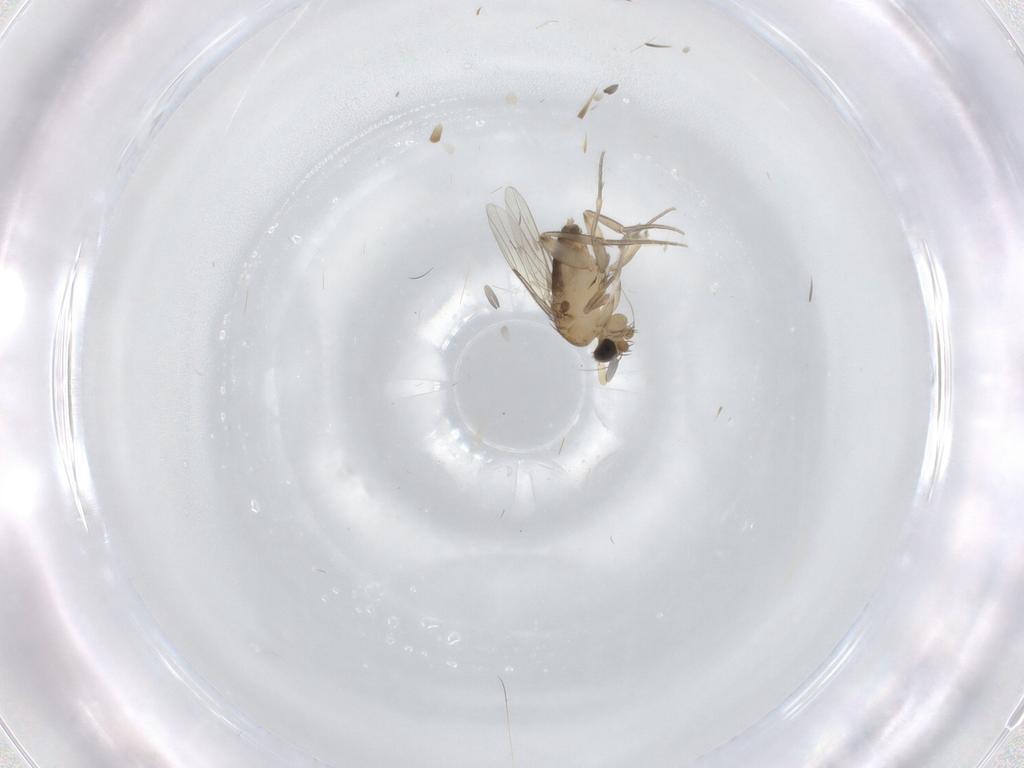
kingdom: Animalia
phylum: Arthropoda
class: Insecta
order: Diptera
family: Phoridae
